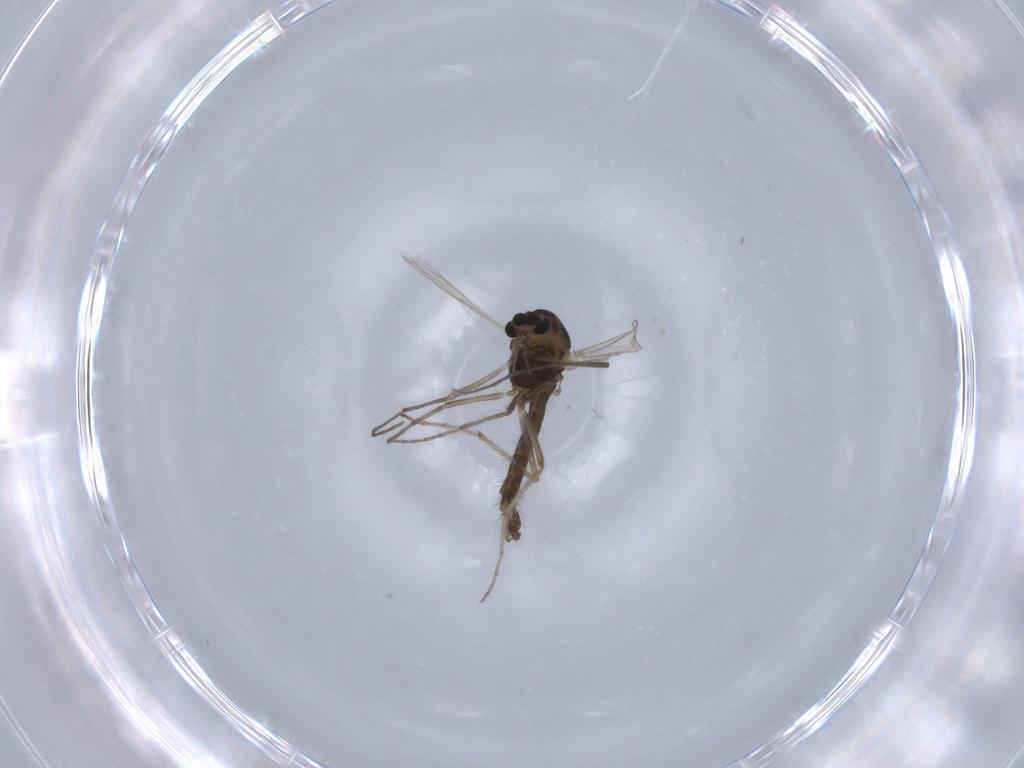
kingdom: Animalia
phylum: Arthropoda
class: Insecta
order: Diptera
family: Chironomidae
